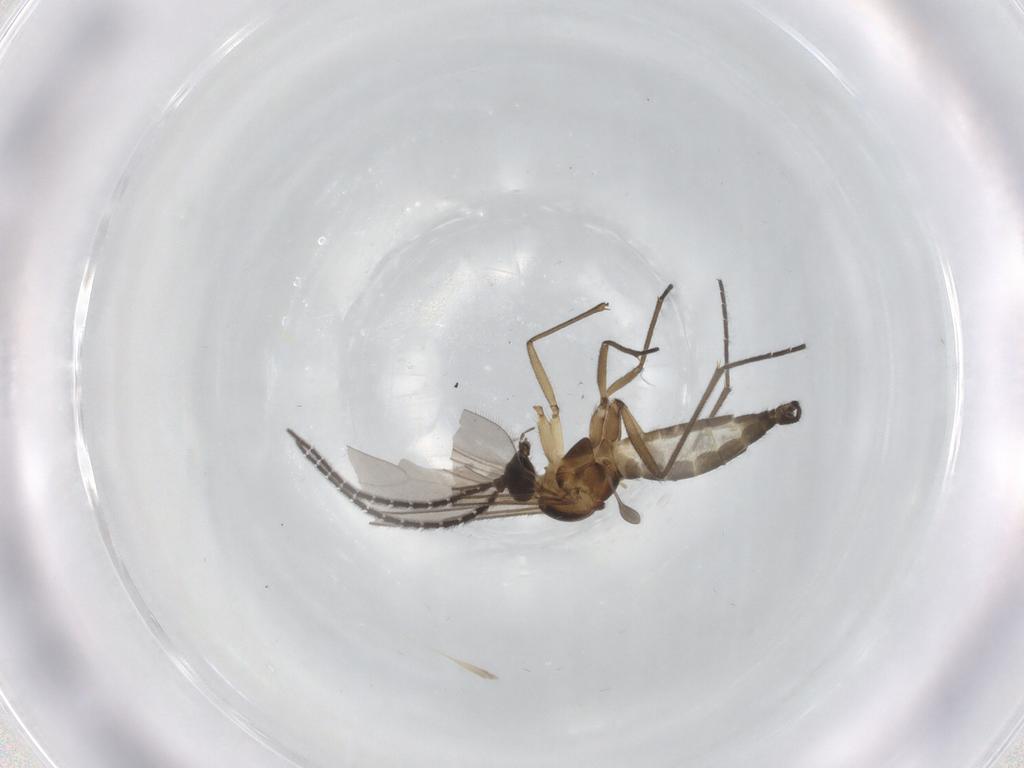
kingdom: Animalia
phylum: Arthropoda
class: Insecta
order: Diptera
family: Sciaridae
